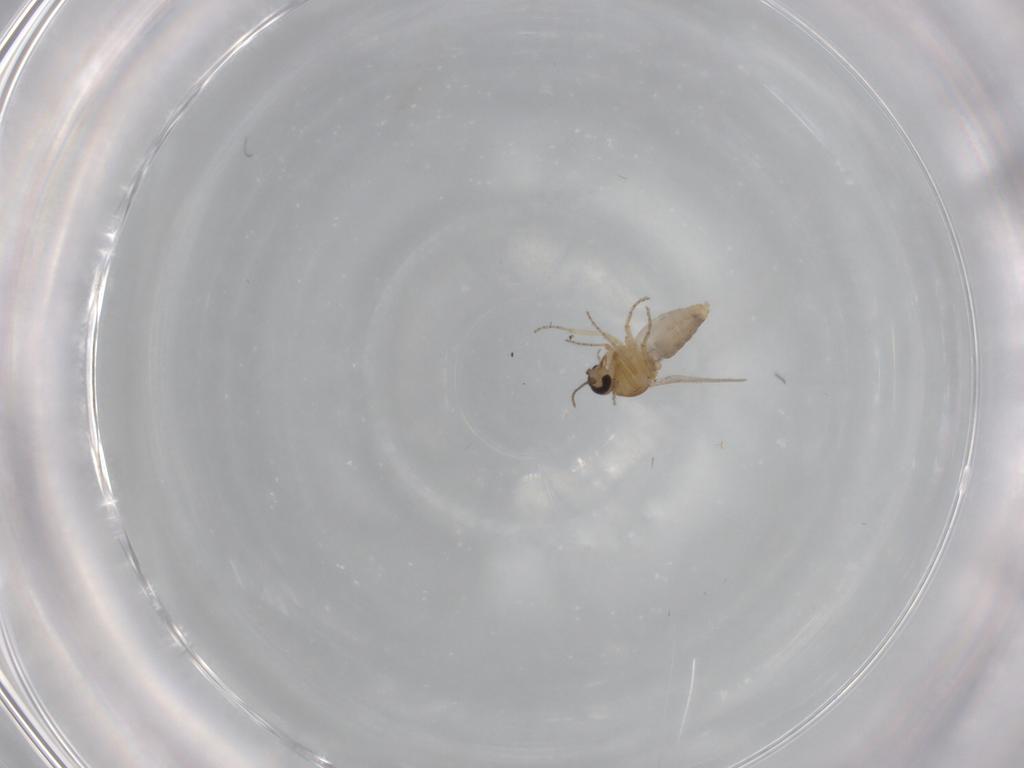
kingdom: Animalia
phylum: Arthropoda
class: Insecta
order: Diptera
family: Ceratopogonidae
